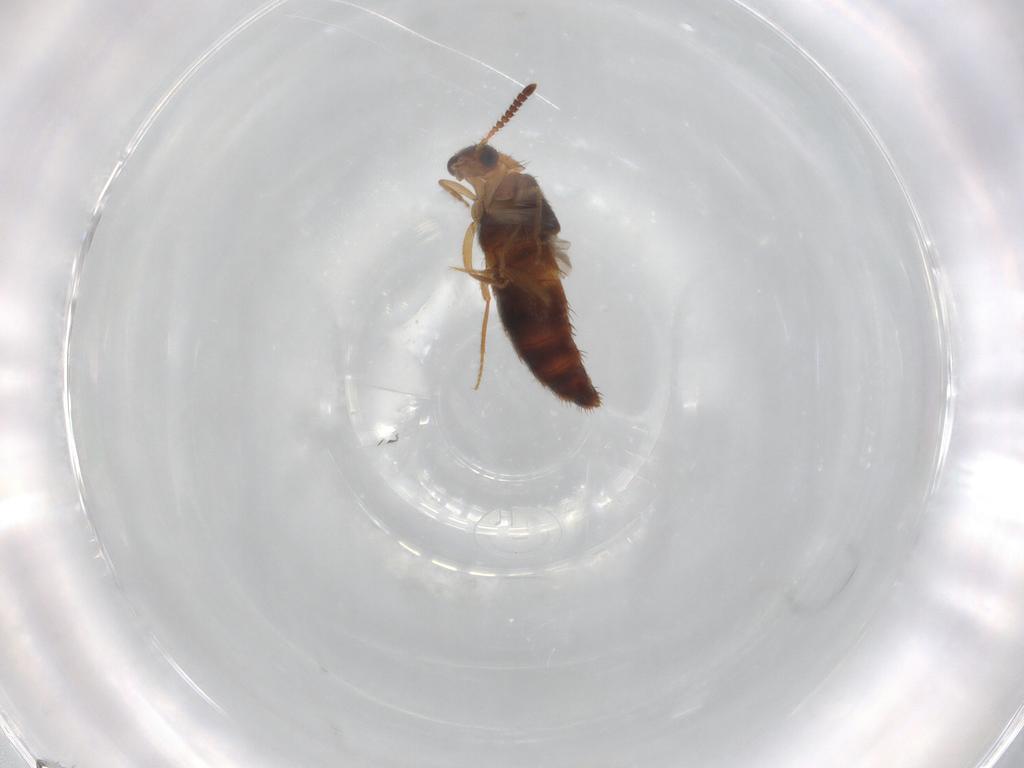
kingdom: Animalia
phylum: Arthropoda
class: Insecta
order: Coleoptera
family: Staphylinidae
